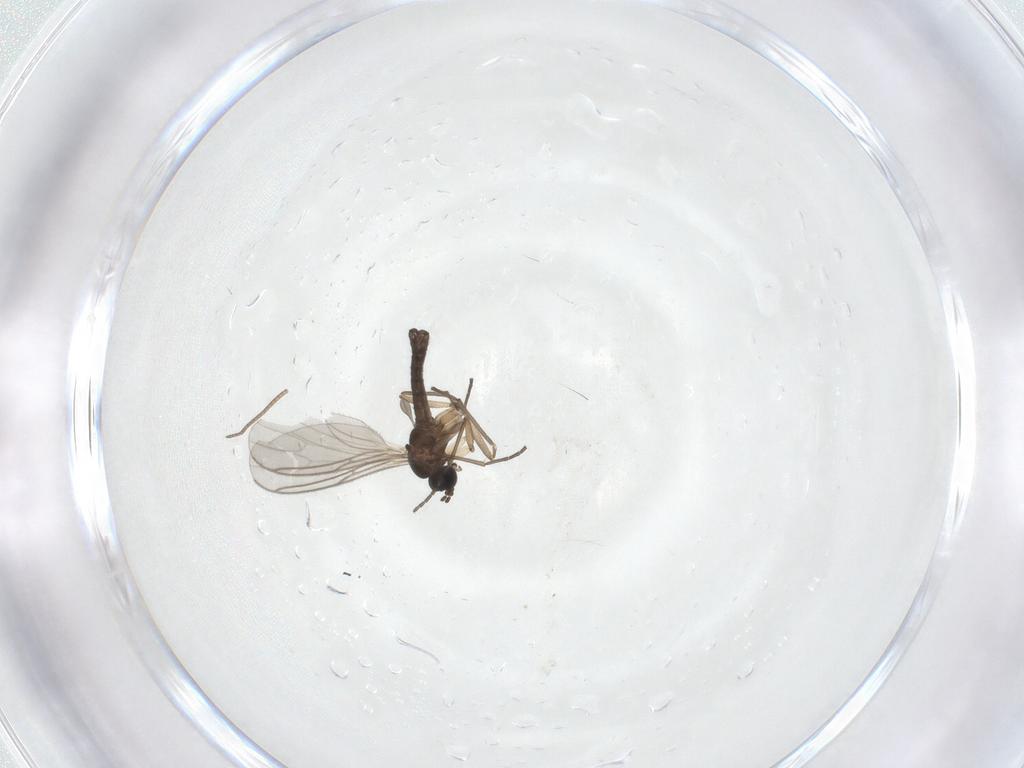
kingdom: Animalia
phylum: Arthropoda
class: Insecta
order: Diptera
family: Sciaridae
